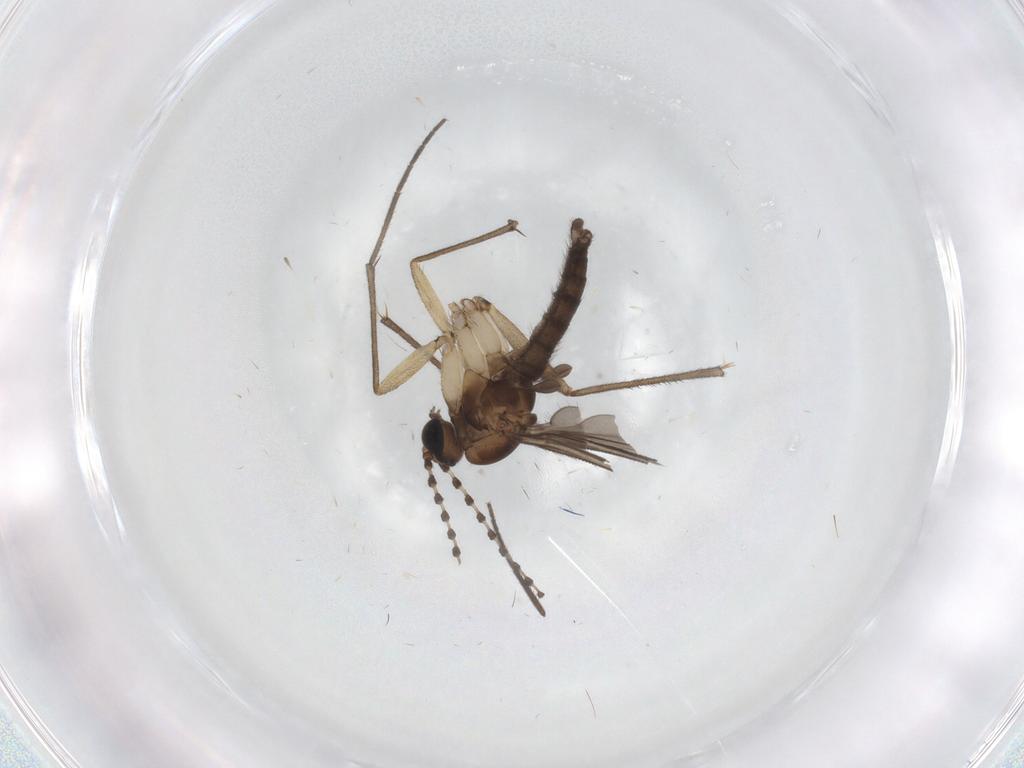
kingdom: Animalia
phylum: Arthropoda
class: Insecta
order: Diptera
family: Sciaridae
